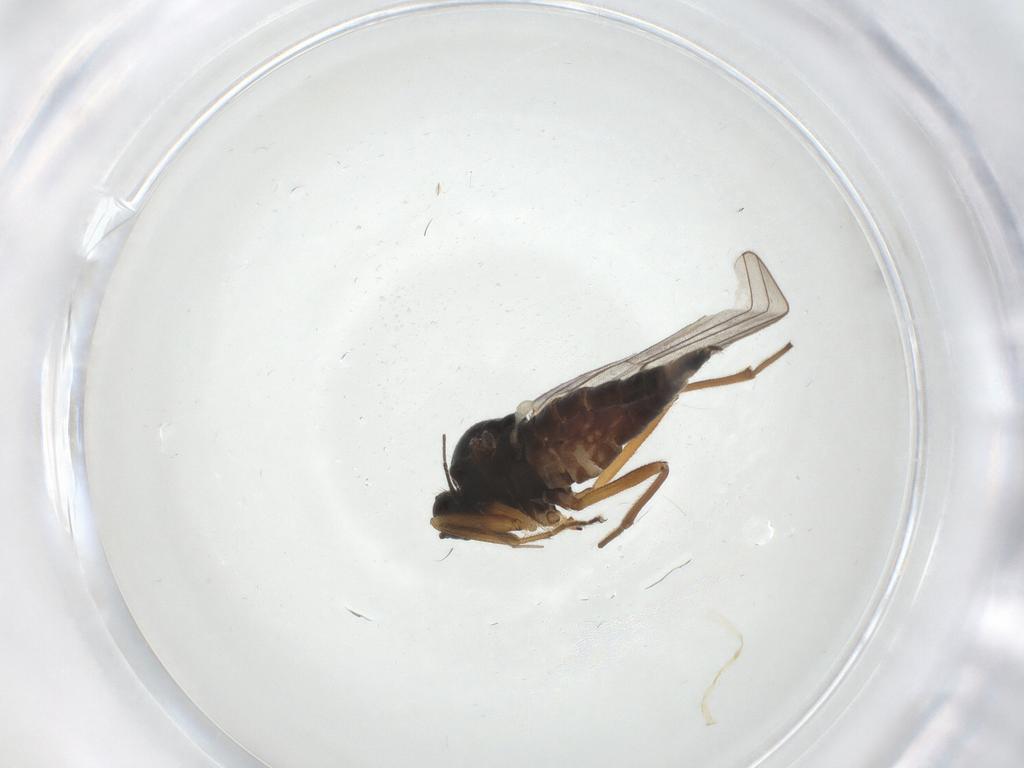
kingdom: Animalia
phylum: Arthropoda
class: Insecta
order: Diptera
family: Hybotidae
